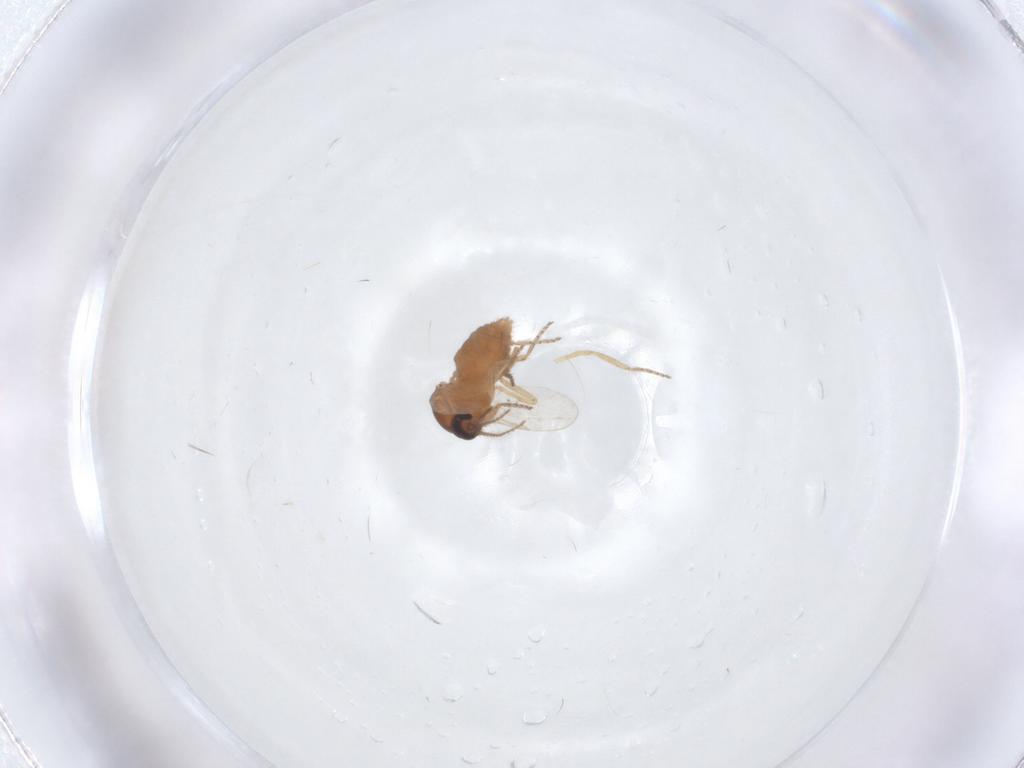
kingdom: Animalia
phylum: Arthropoda
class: Insecta
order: Diptera
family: Ceratopogonidae
